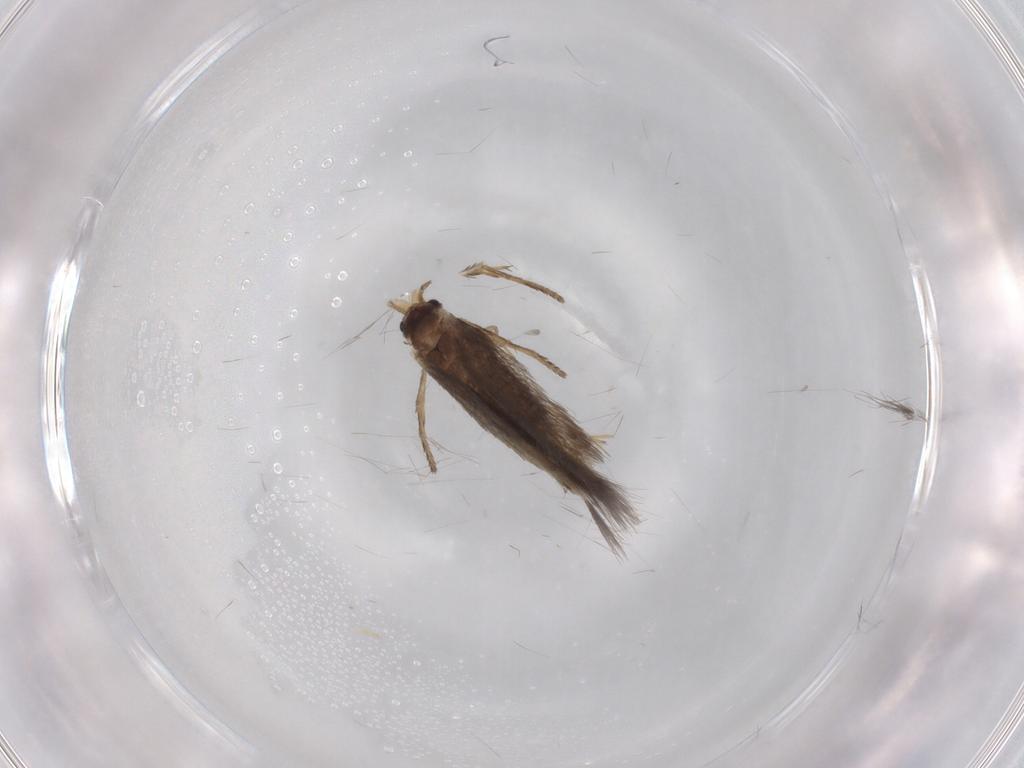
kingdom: Animalia
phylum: Arthropoda
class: Insecta
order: Lepidoptera
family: Nepticulidae
